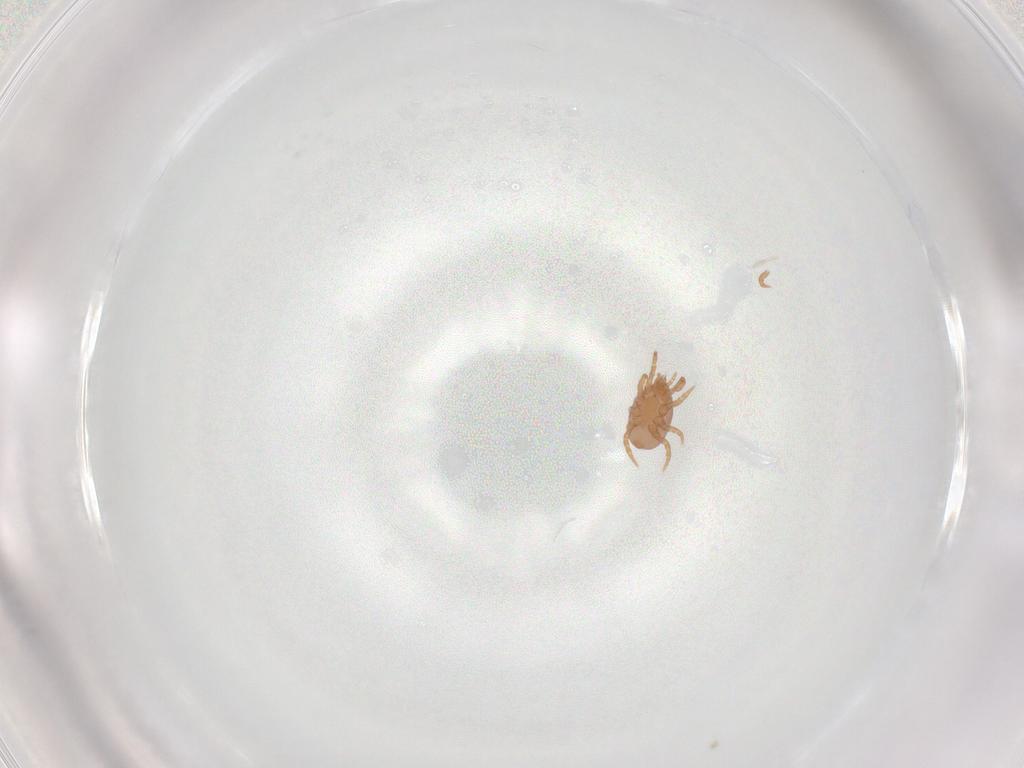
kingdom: Animalia
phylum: Arthropoda
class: Arachnida
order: Mesostigmata
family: Eviphididae
